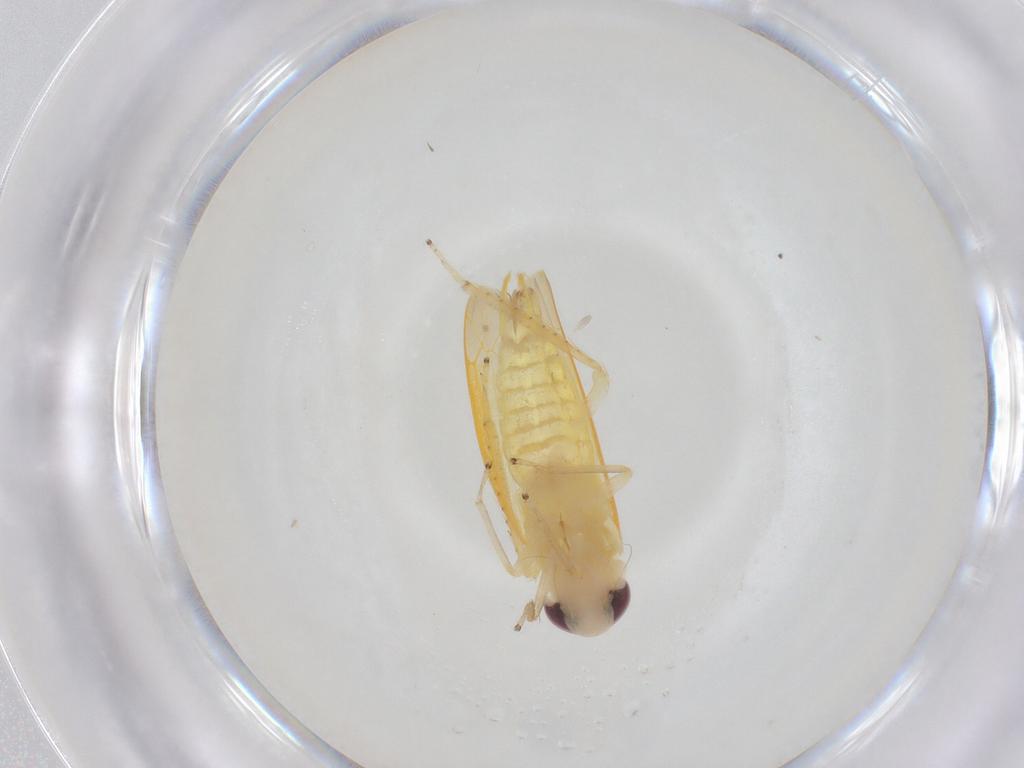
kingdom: Animalia
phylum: Arthropoda
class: Insecta
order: Hemiptera
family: Cicadellidae
